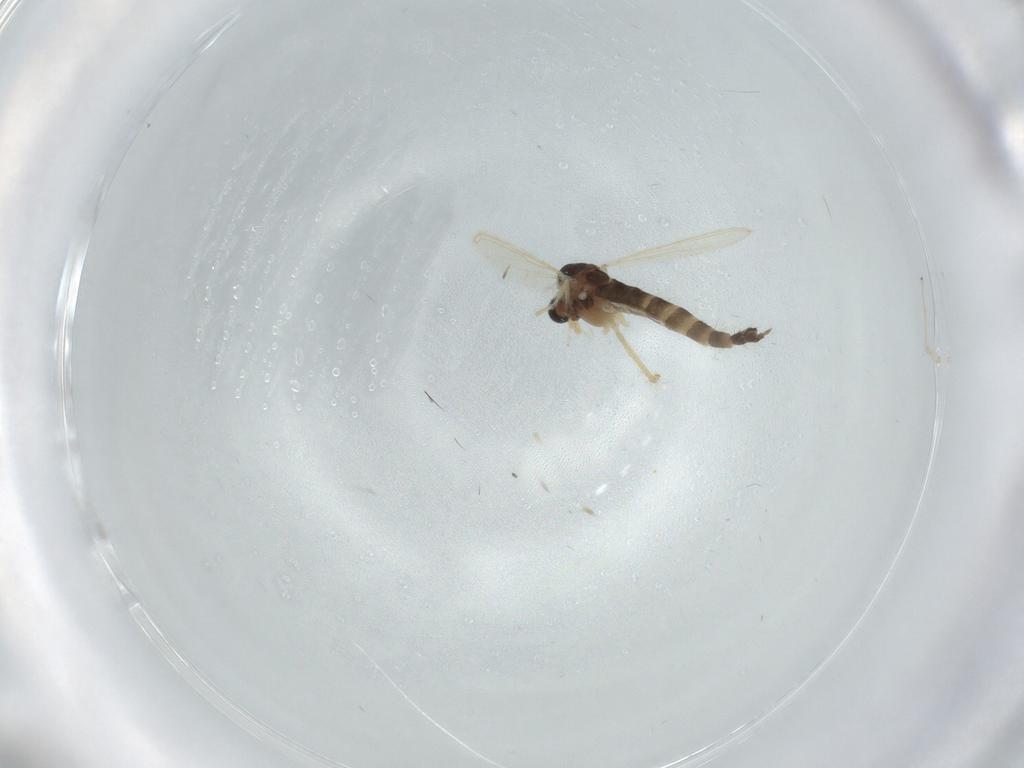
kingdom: Animalia
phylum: Arthropoda
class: Insecta
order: Diptera
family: Chironomidae
